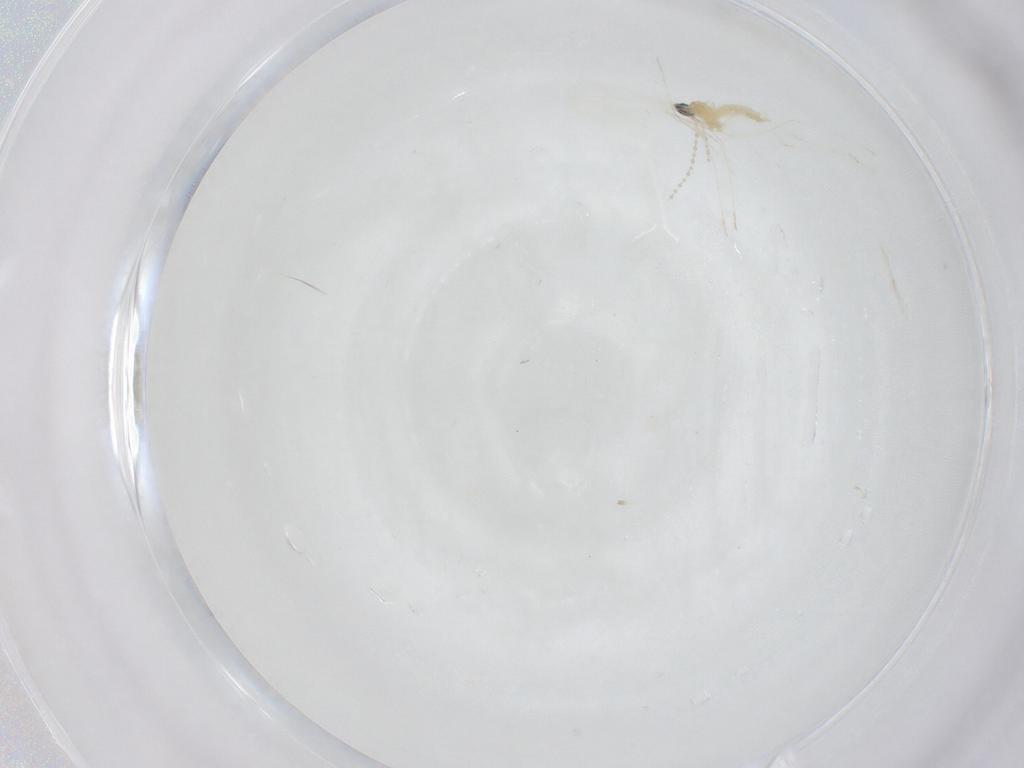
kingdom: Animalia
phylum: Arthropoda
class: Insecta
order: Diptera
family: Cecidomyiidae
